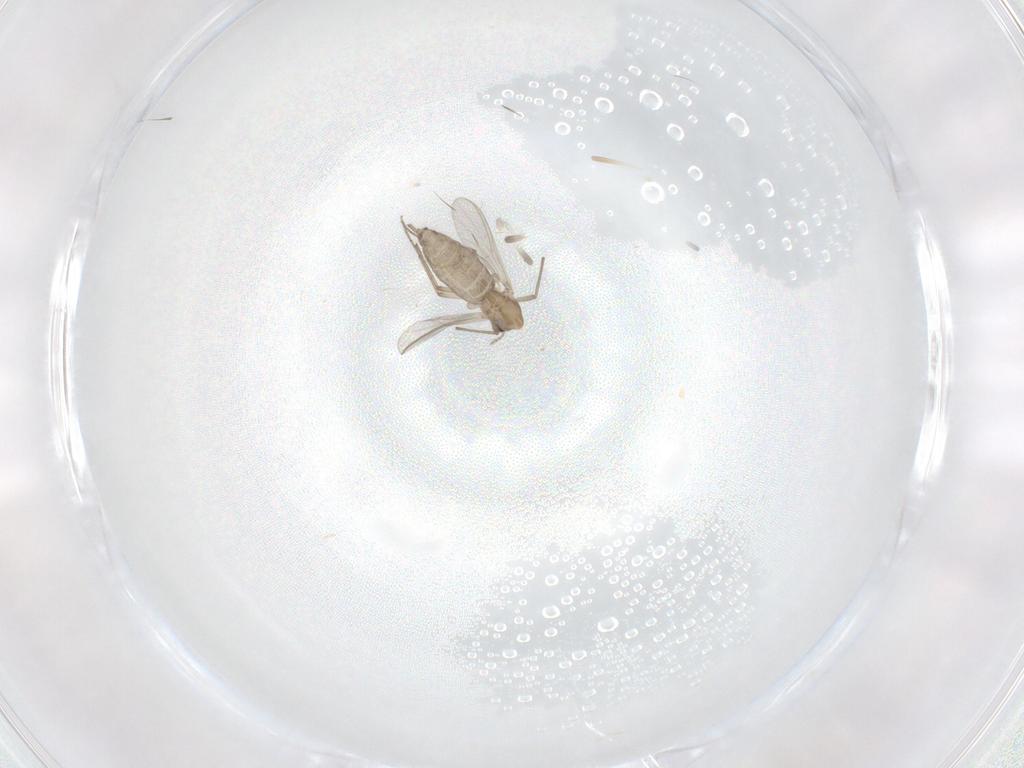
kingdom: Animalia
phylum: Arthropoda
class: Insecta
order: Diptera
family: Chironomidae
